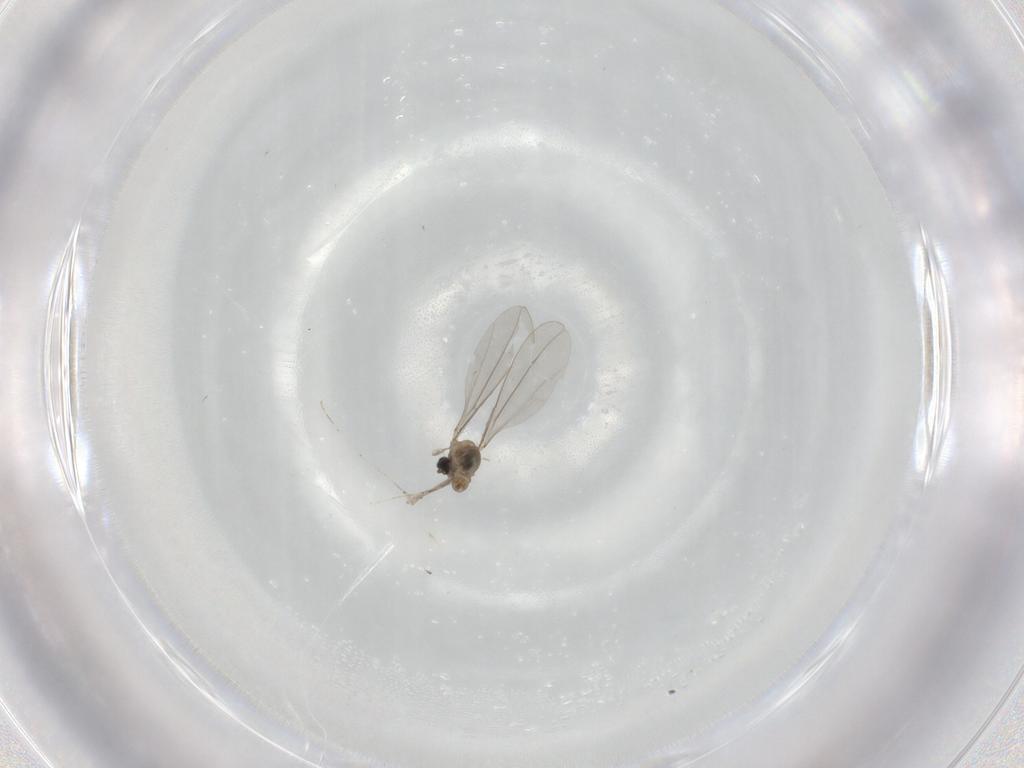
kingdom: Animalia
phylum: Arthropoda
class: Insecta
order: Diptera
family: Cecidomyiidae
